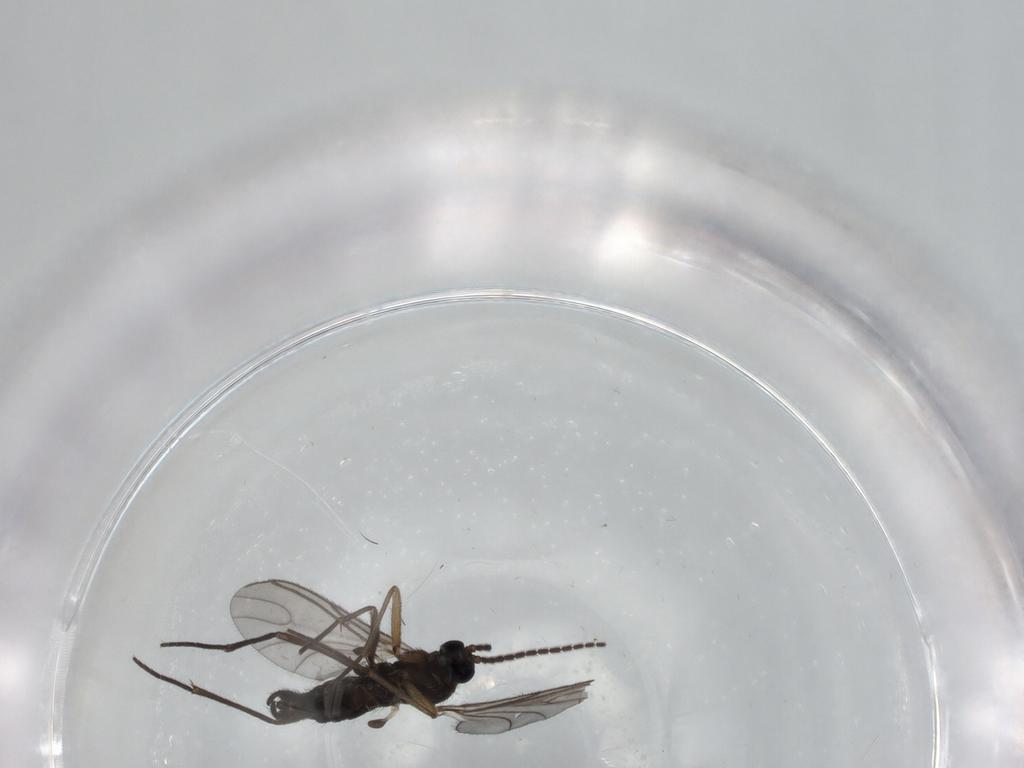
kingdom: Animalia
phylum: Arthropoda
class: Insecta
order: Diptera
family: Sciaridae
